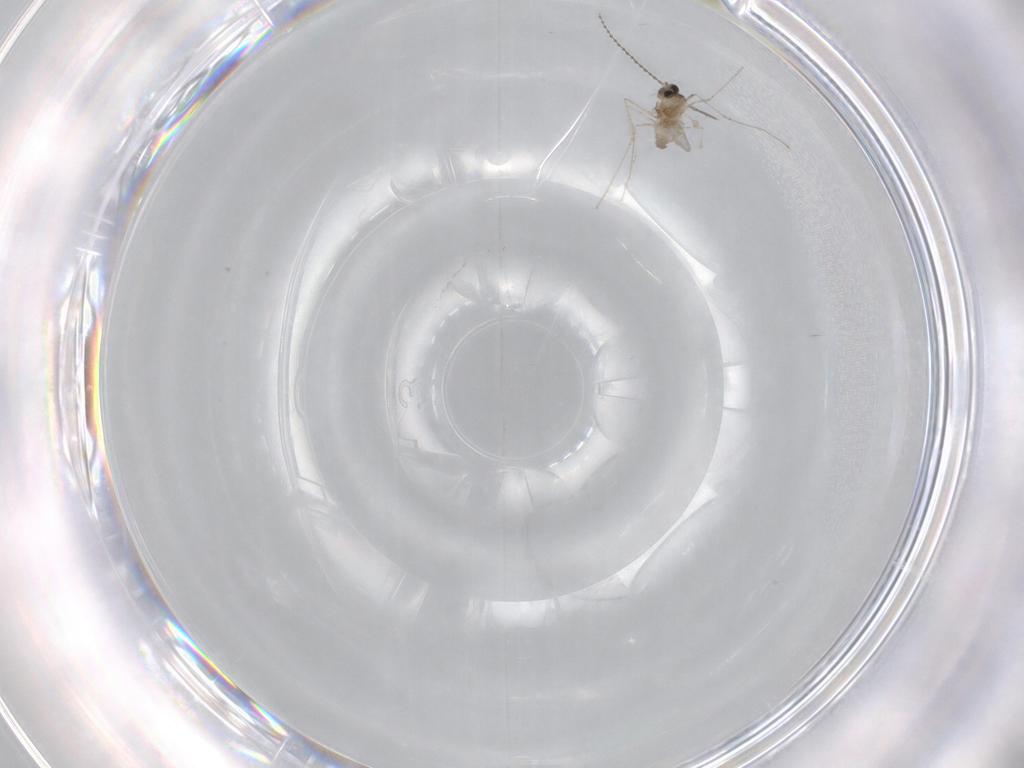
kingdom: Animalia
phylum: Arthropoda
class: Insecta
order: Diptera
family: Cecidomyiidae
